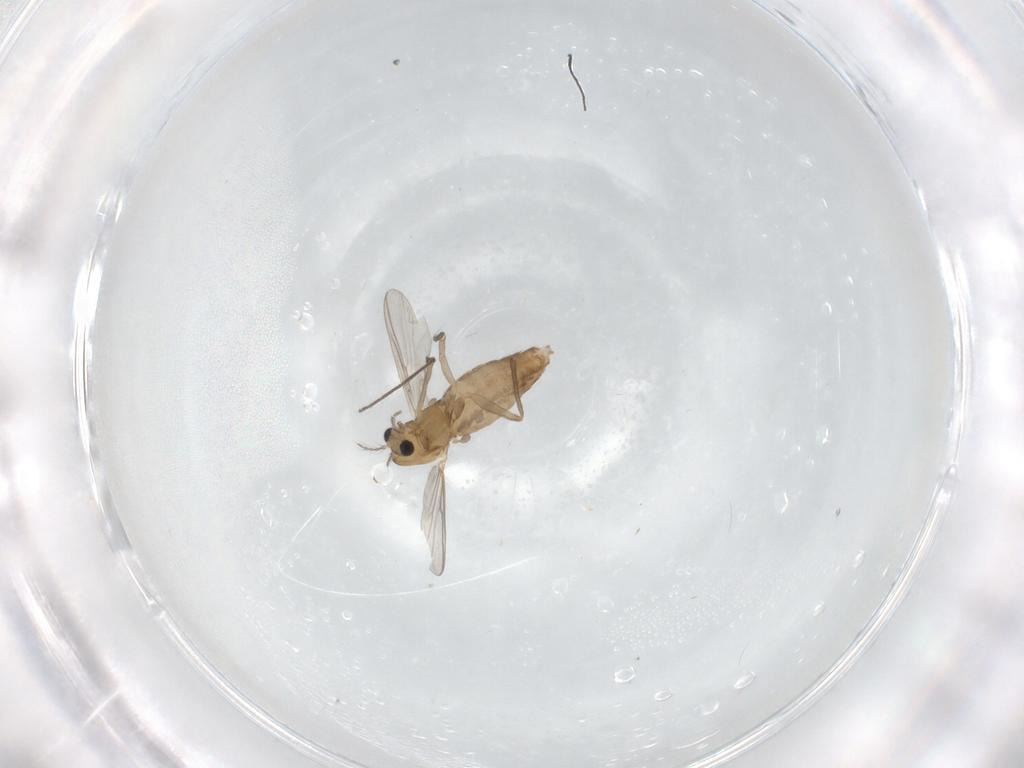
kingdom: Animalia
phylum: Arthropoda
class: Insecta
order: Diptera
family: Chironomidae
